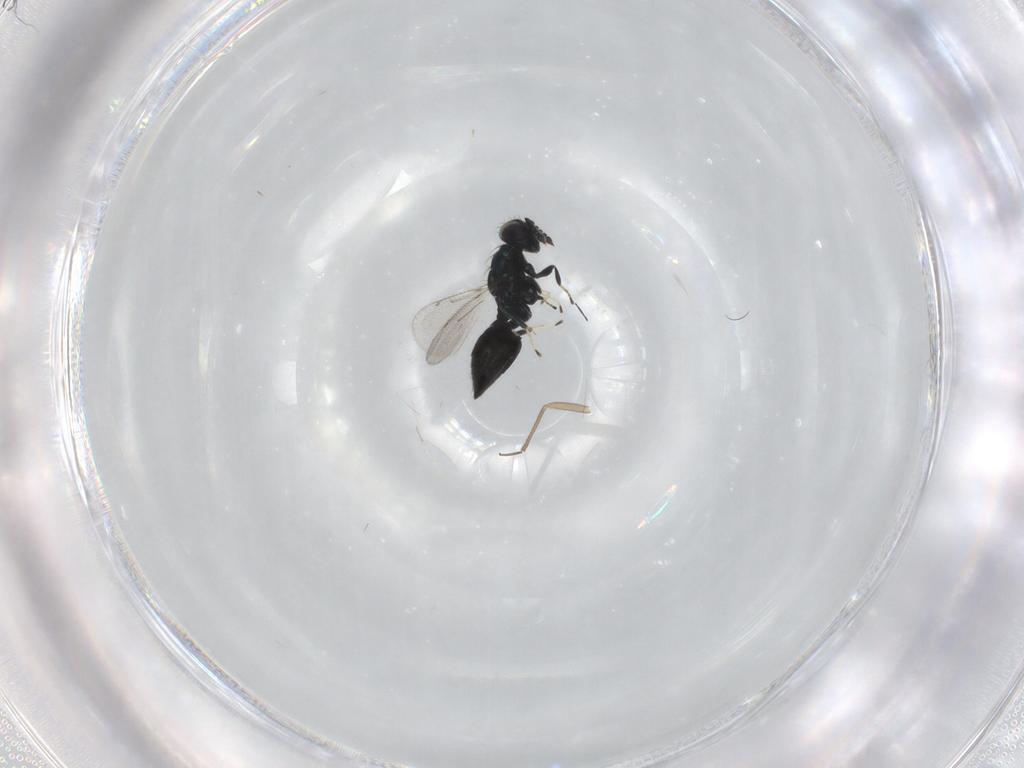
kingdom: Animalia
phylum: Arthropoda
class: Insecta
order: Hymenoptera
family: Eulophidae
